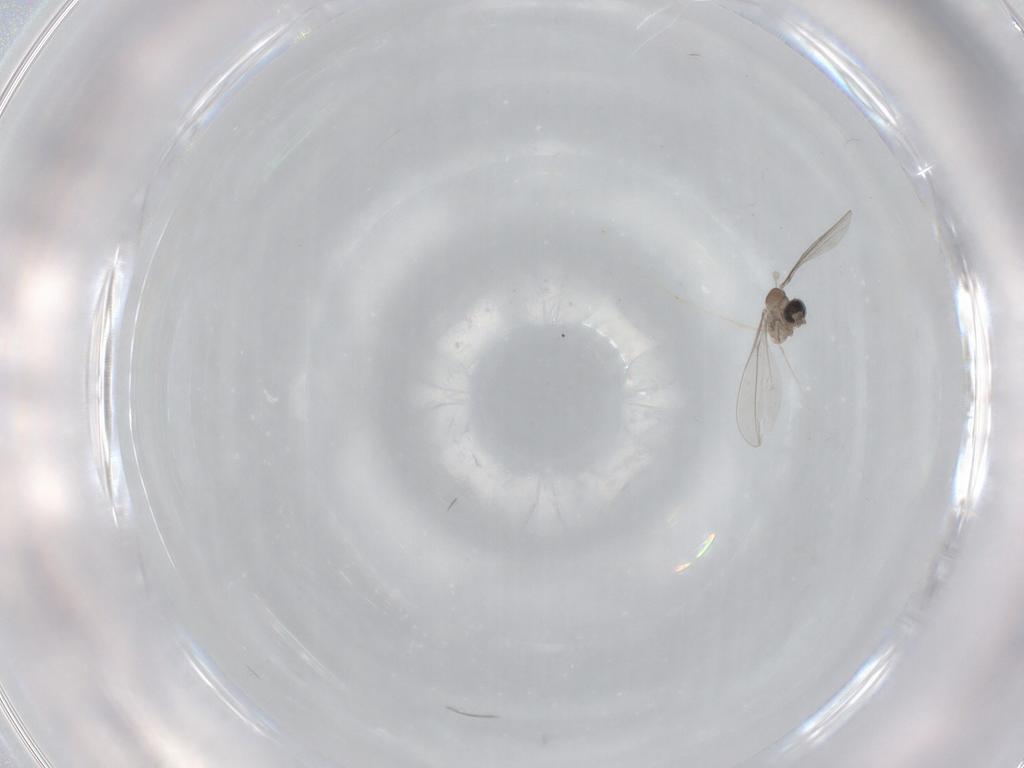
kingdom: Animalia
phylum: Arthropoda
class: Insecta
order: Diptera
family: Cecidomyiidae
